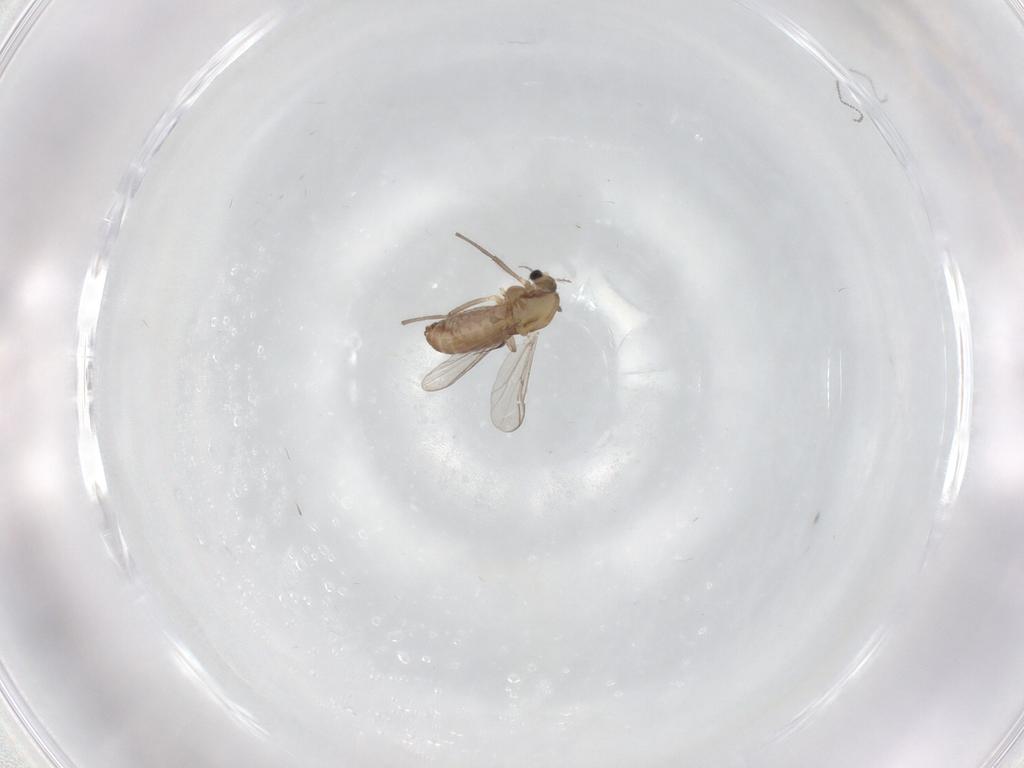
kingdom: Animalia
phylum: Arthropoda
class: Insecta
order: Diptera
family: Chironomidae
